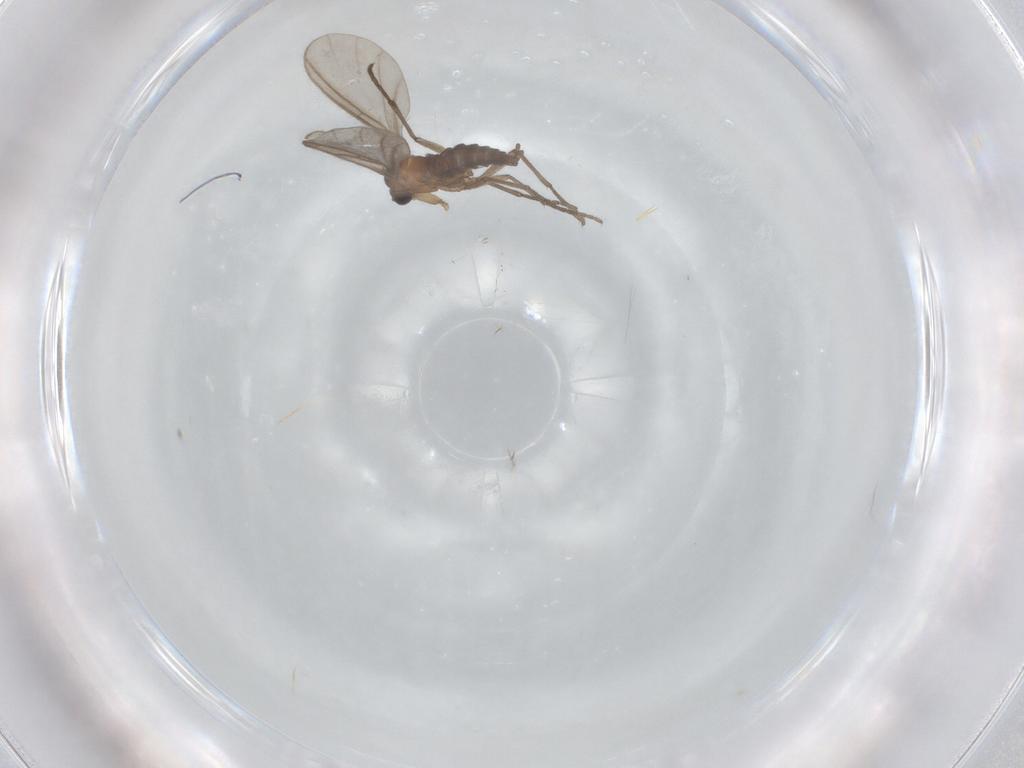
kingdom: Animalia
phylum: Arthropoda
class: Insecta
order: Diptera
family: Sciaridae
